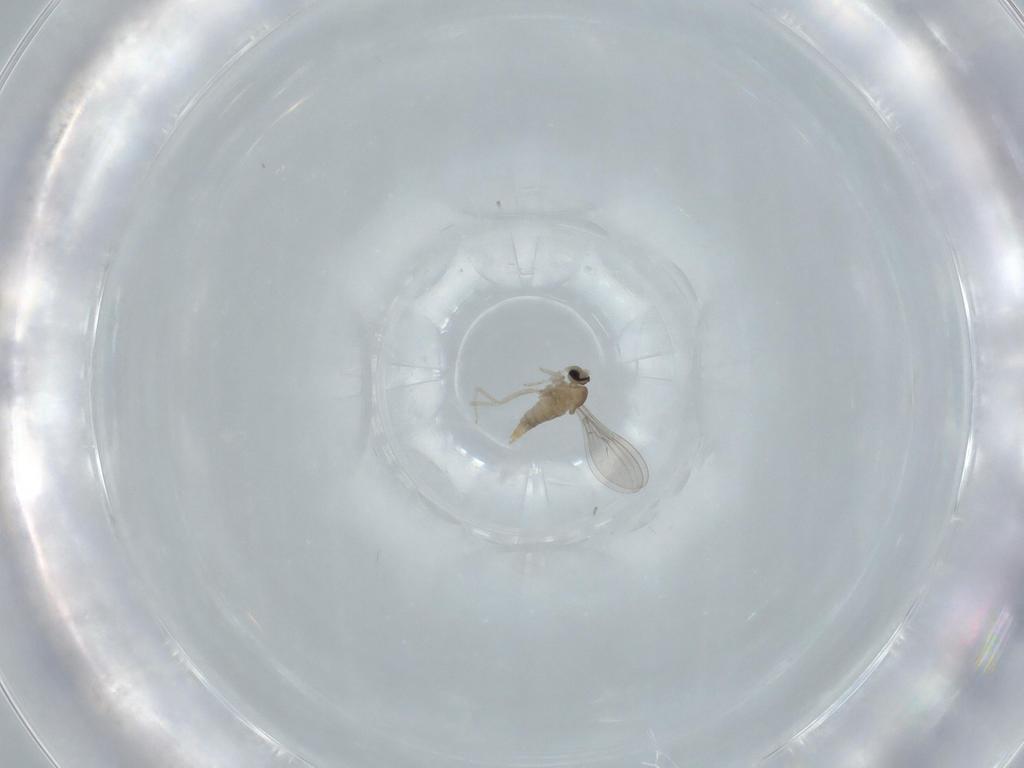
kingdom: Animalia
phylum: Arthropoda
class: Insecta
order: Diptera
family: Cecidomyiidae
